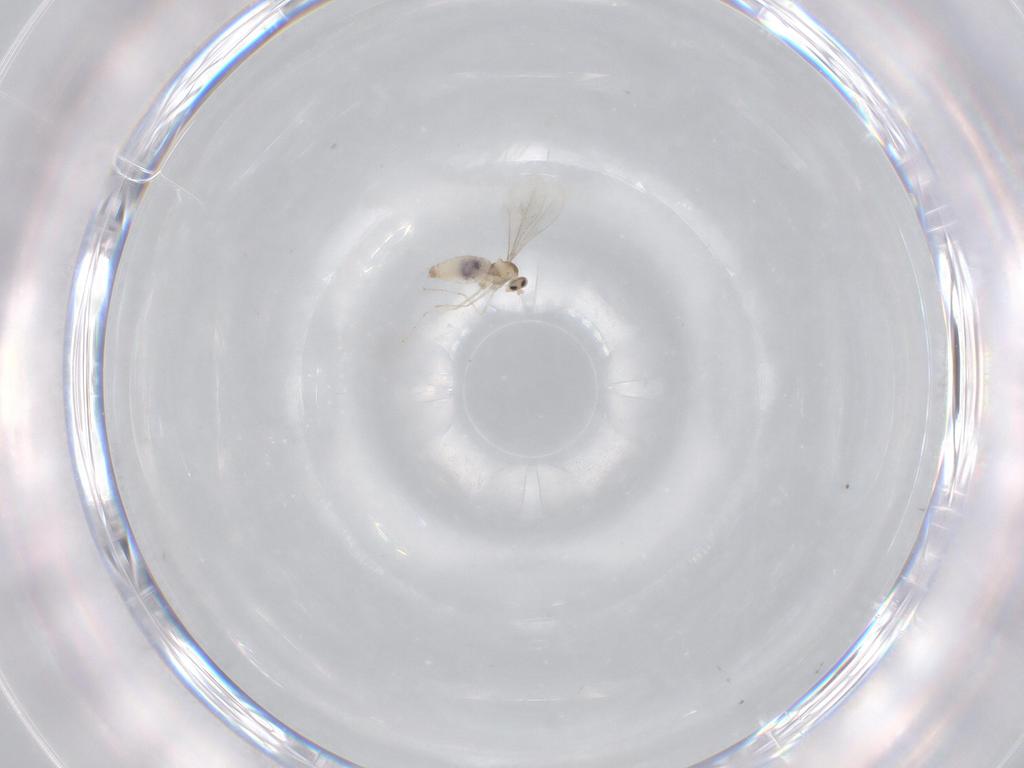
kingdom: Animalia
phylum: Arthropoda
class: Insecta
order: Diptera
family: Cecidomyiidae
